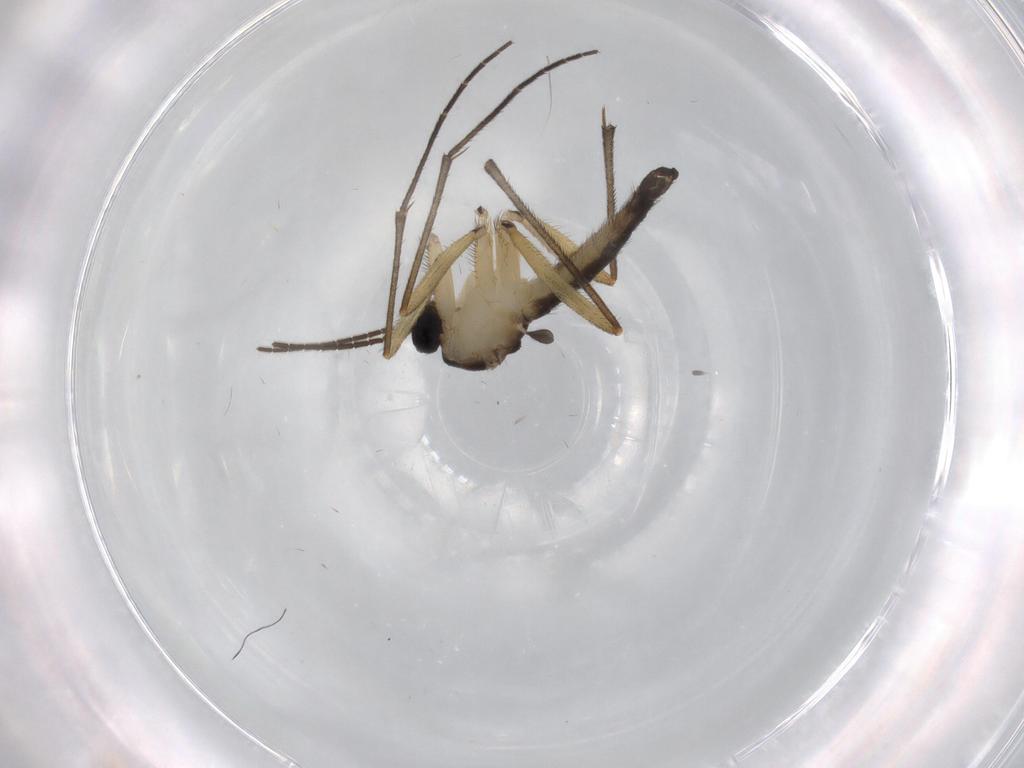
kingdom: Animalia
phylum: Arthropoda
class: Insecta
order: Diptera
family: Sciaridae
